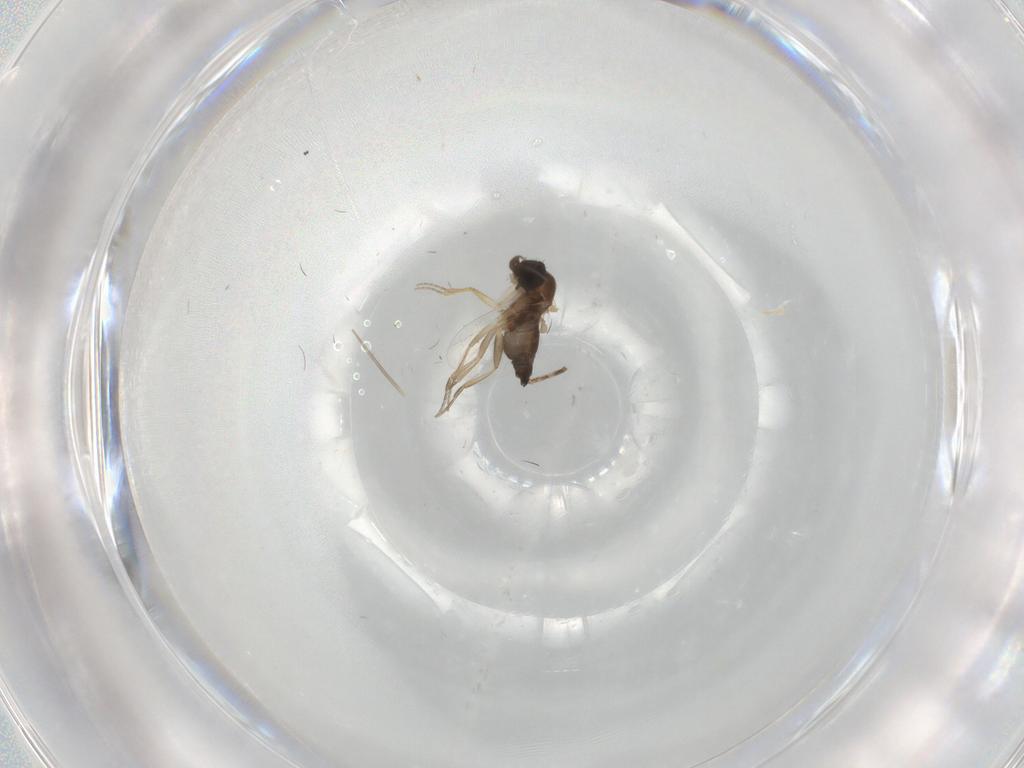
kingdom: Animalia
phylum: Arthropoda
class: Insecta
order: Diptera
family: Phoridae
